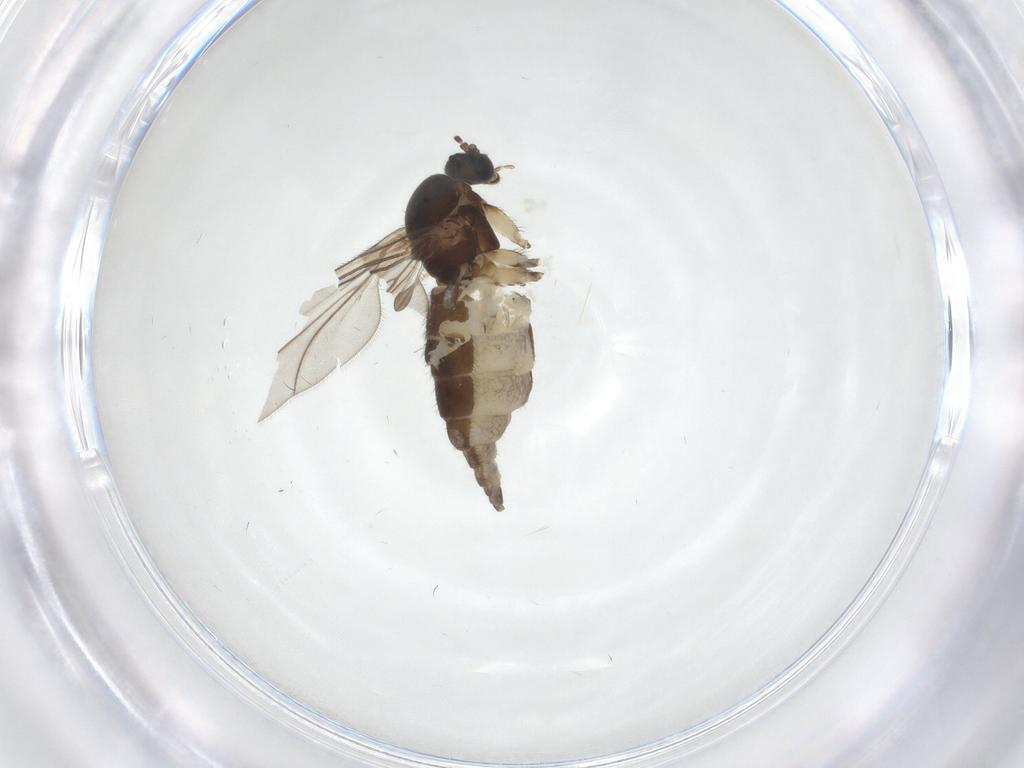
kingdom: Animalia
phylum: Arthropoda
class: Insecta
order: Diptera
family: Sciaridae
